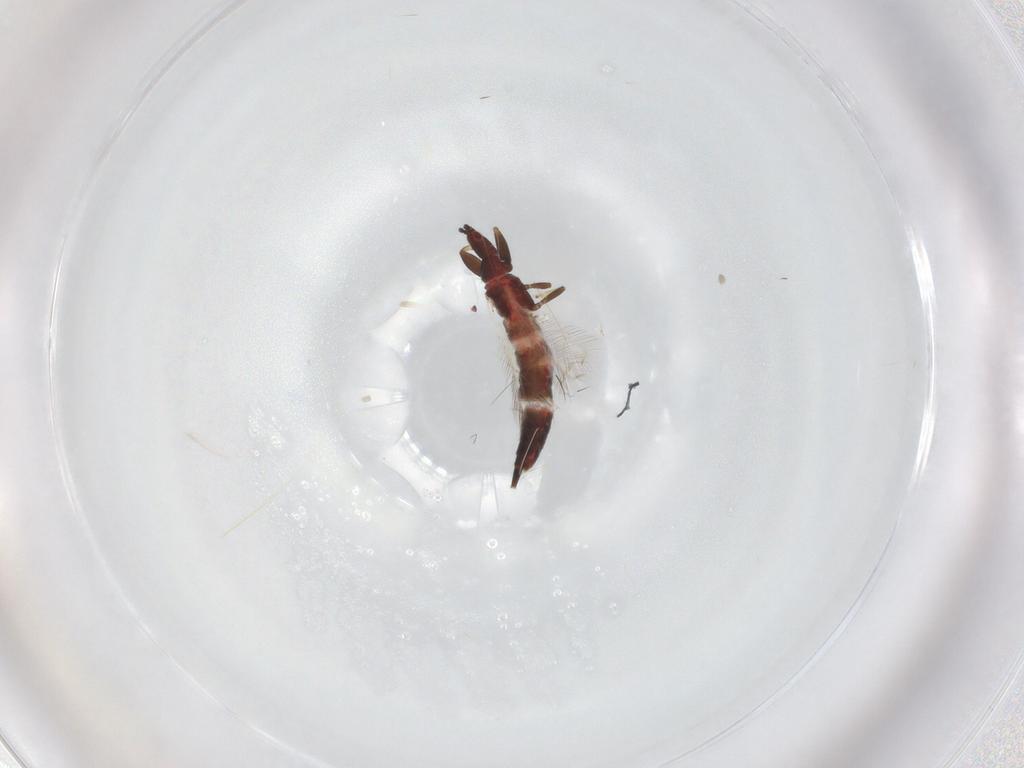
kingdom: Animalia
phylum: Arthropoda
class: Insecta
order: Thysanoptera
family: Phlaeothripidae
